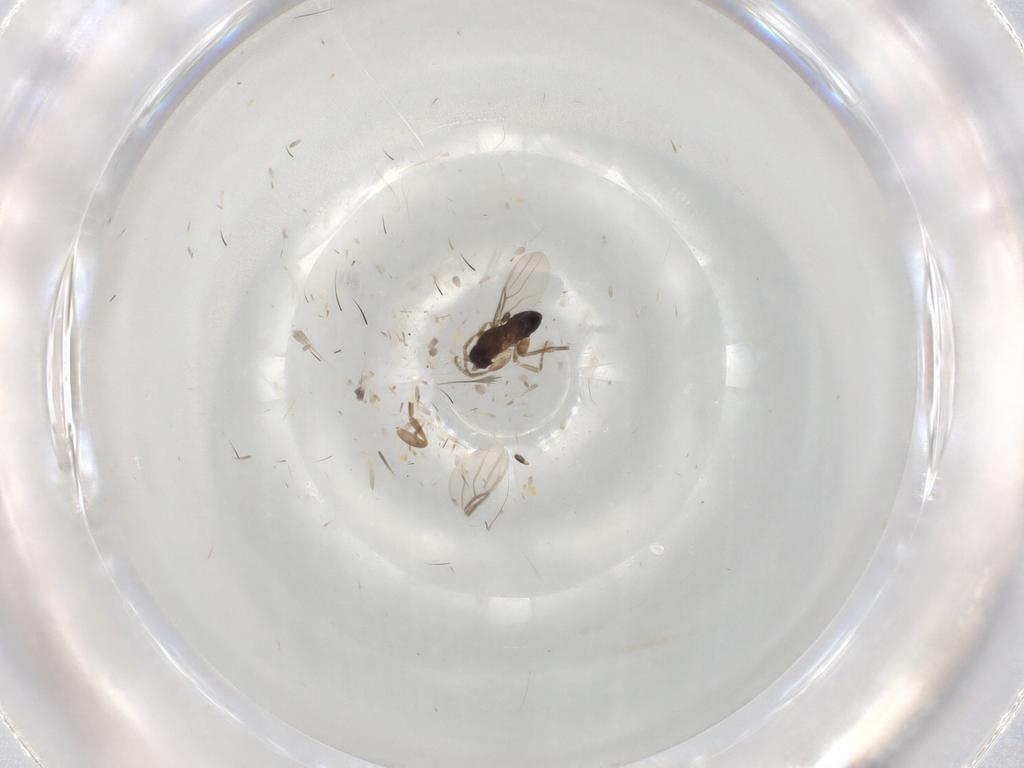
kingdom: Animalia
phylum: Arthropoda
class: Insecta
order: Diptera
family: Phoridae
